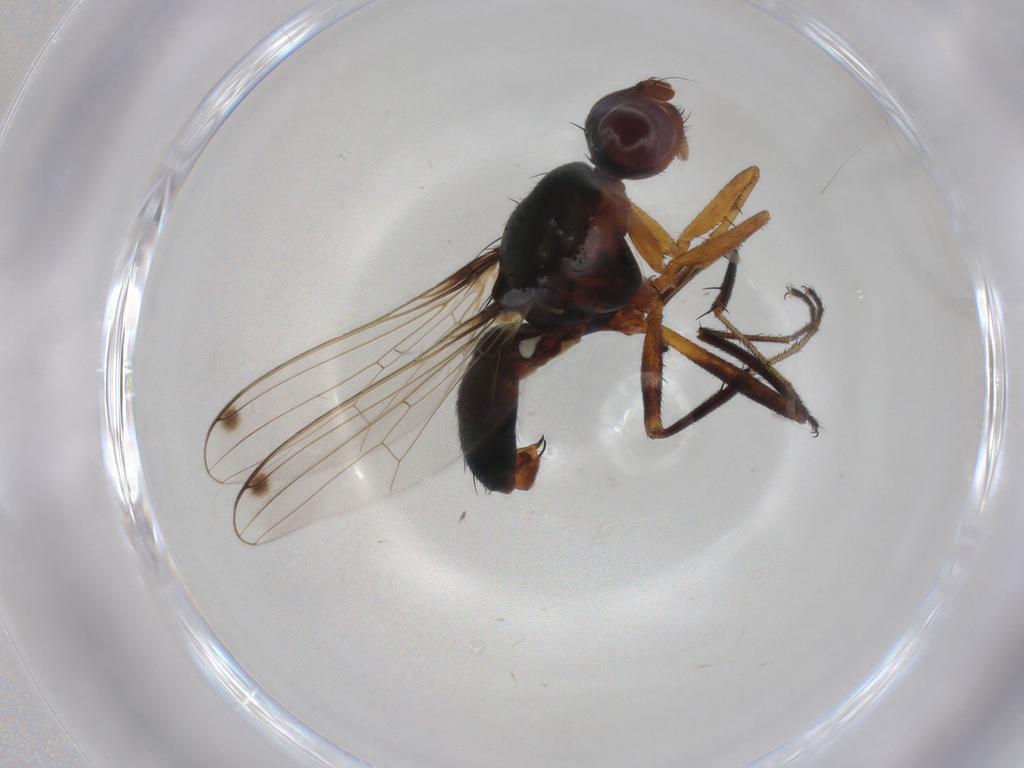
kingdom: Animalia
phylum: Arthropoda
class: Insecta
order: Diptera
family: Sepsidae
